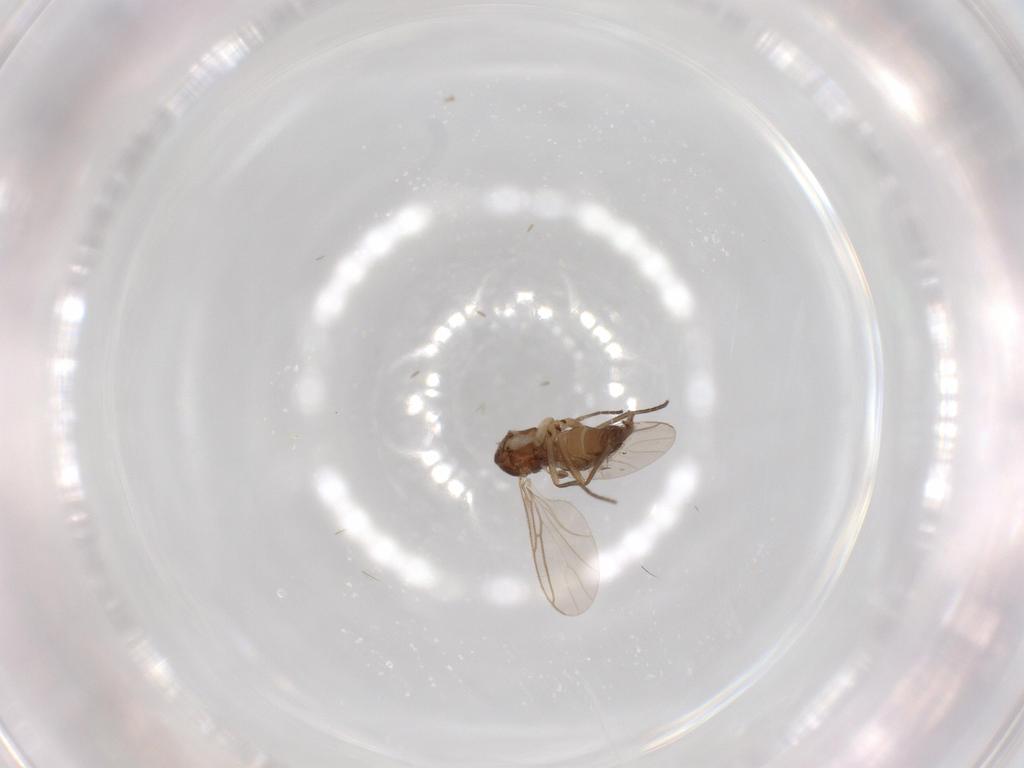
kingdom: Animalia
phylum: Arthropoda
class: Insecta
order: Diptera
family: Sciaridae
